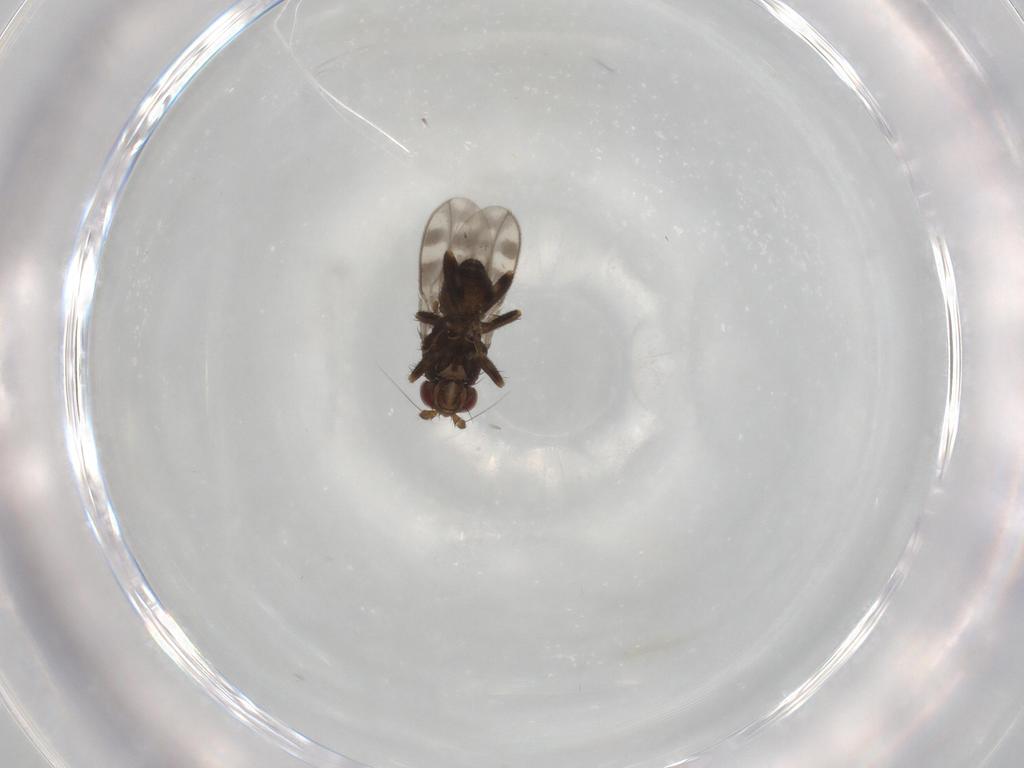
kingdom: Animalia
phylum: Arthropoda
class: Insecta
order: Diptera
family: Sphaeroceridae
